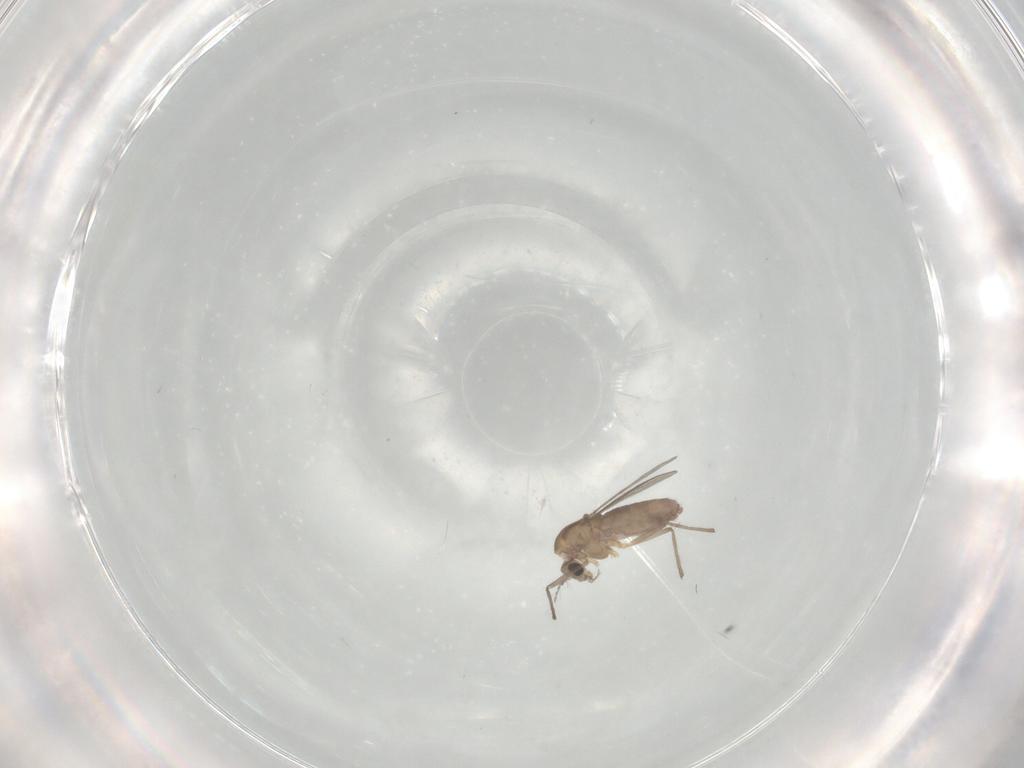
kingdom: Animalia
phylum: Arthropoda
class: Insecta
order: Diptera
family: Chironomidae
